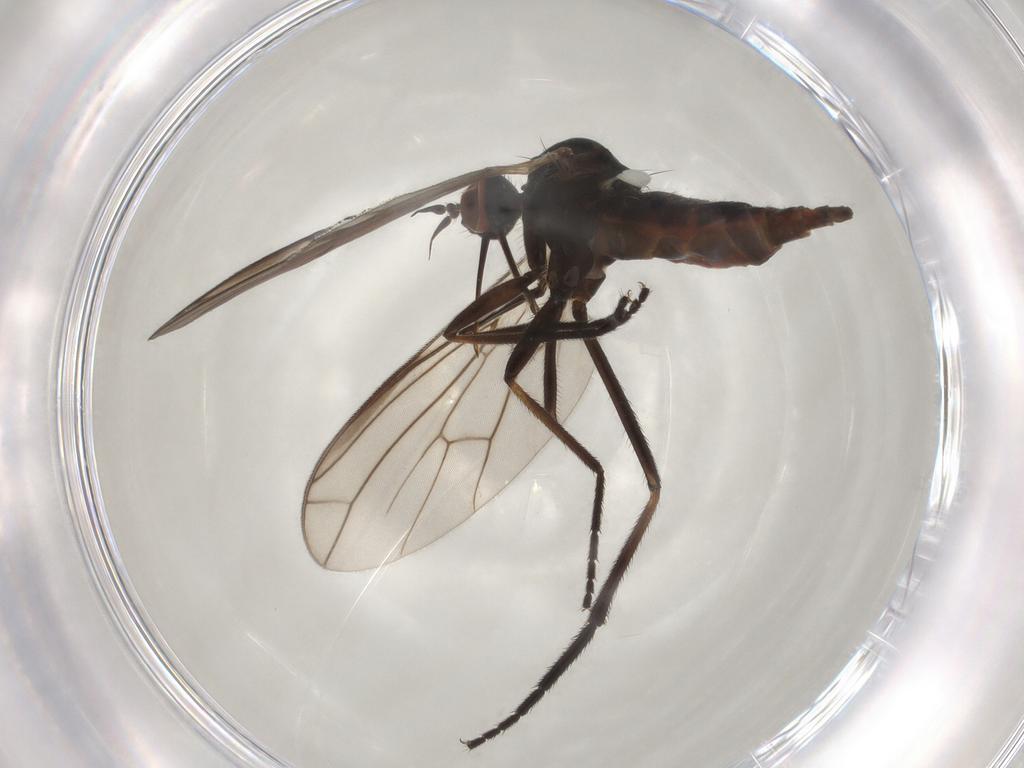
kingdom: Animalia
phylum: Arthropoda
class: Insecta
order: Diptera
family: Empididae
